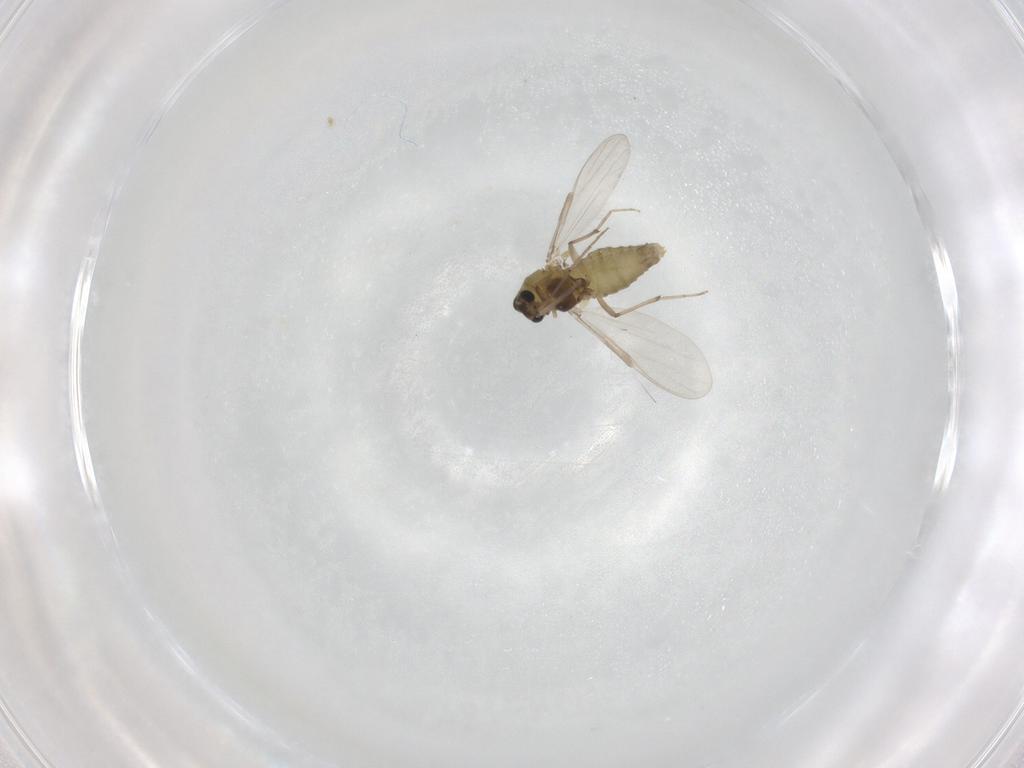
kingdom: Animalia
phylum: Arthropoda
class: Insecta
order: Diptera
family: Chironomidae
